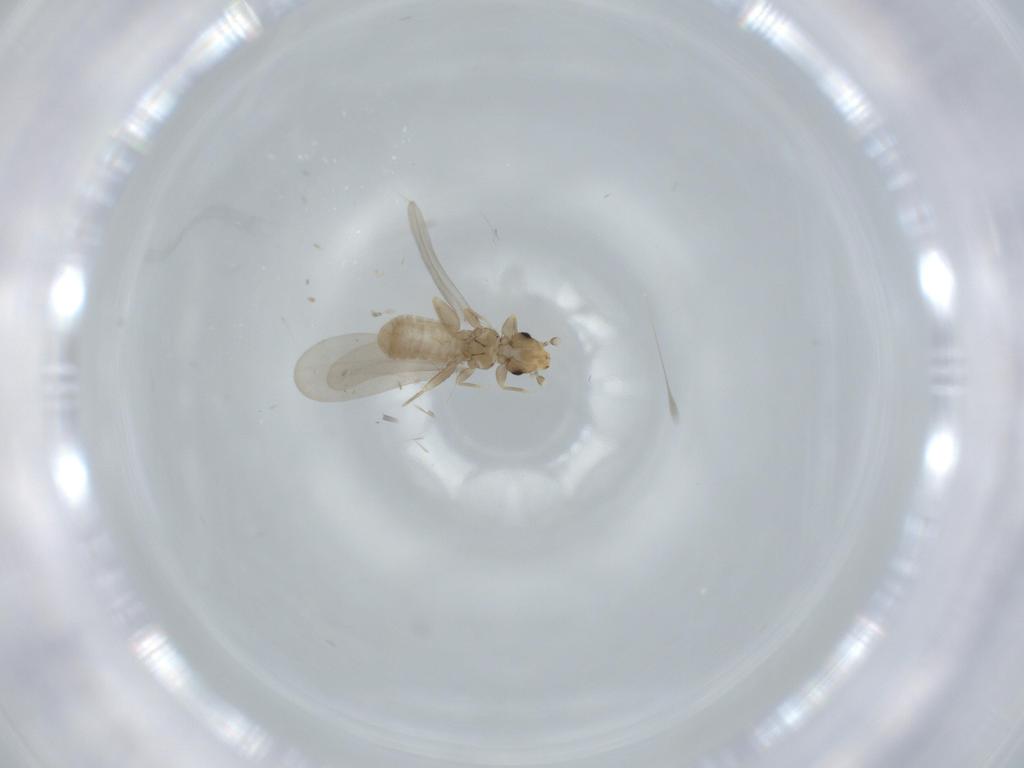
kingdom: Animalia
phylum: Arthropoda
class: Insecta
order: Psocodea
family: Liposcelididae
